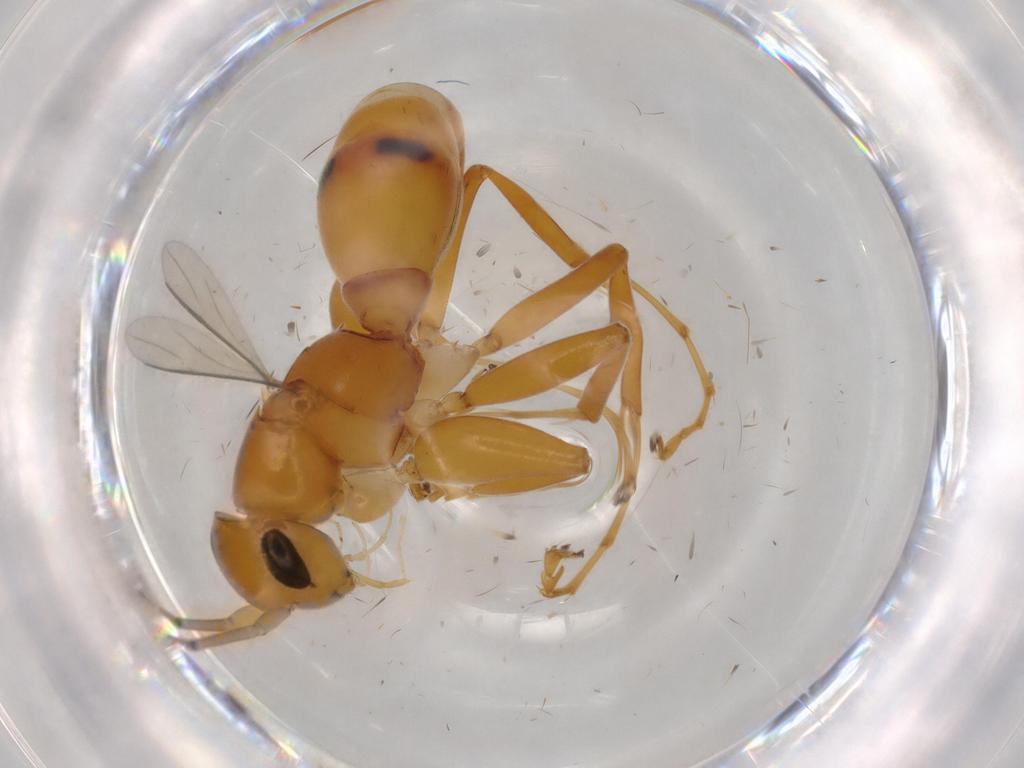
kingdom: Animalia
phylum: Arthropoda
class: Insecta
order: Hymenoptera
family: Rhopalosomatidae
